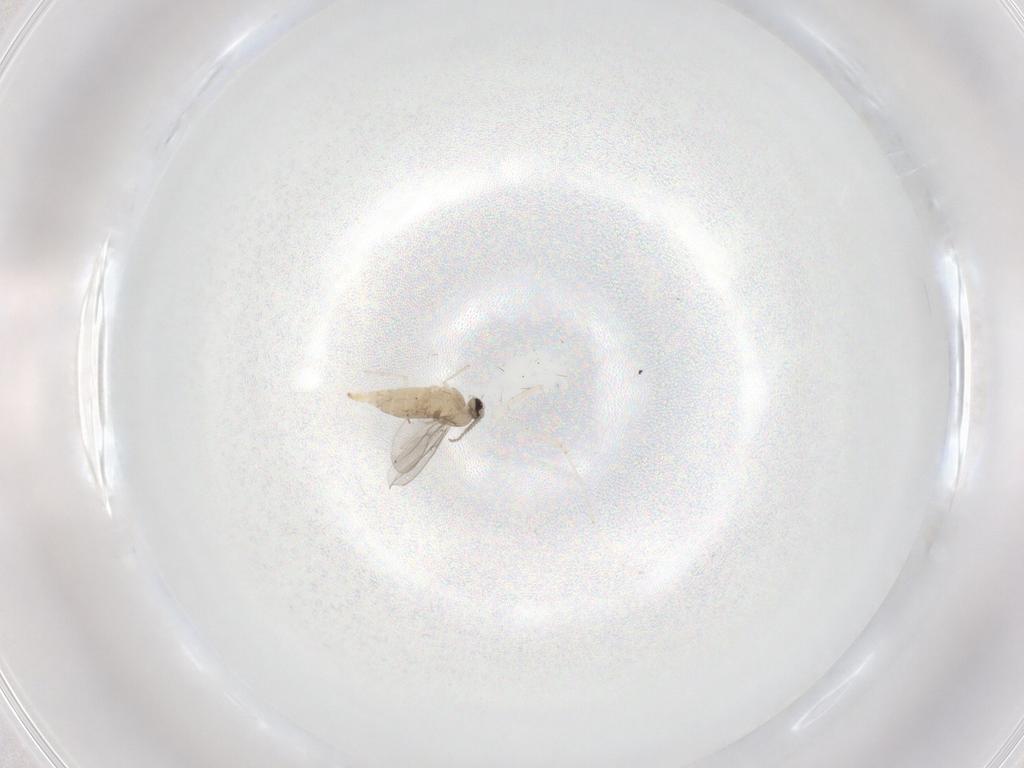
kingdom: Animalia
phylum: Arthropoda
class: Insecta
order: Diptera
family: Cecidomyiidae
